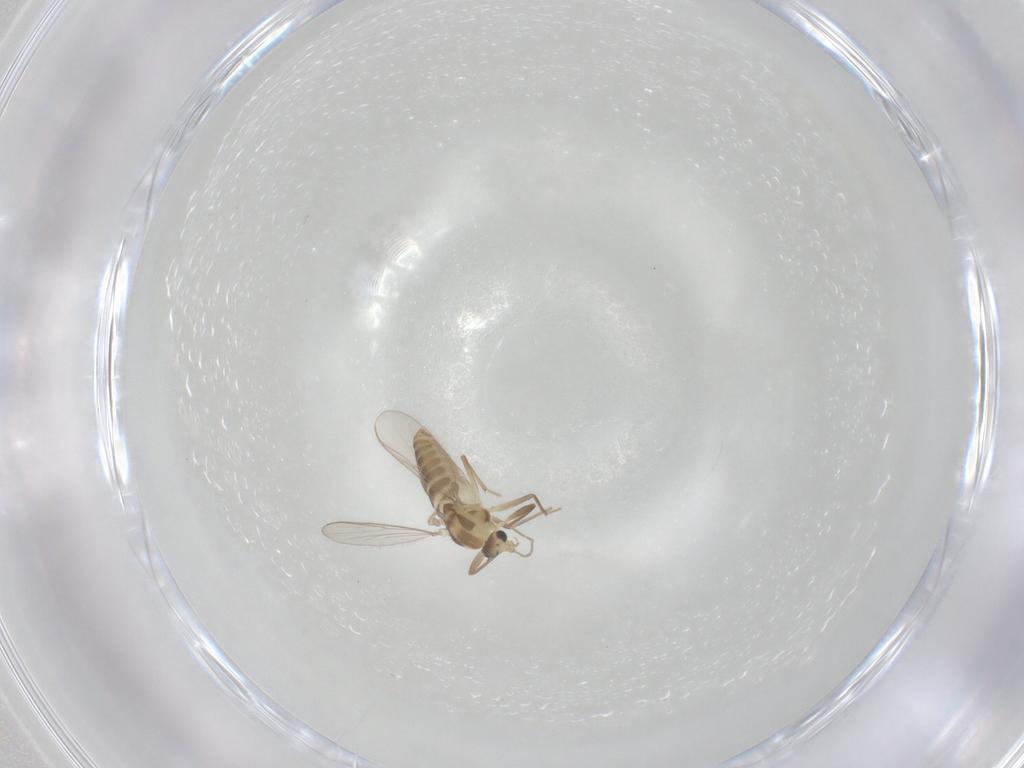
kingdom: Animalia
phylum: Arthropoda
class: Insecta
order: Diptera
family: Chironomidae
